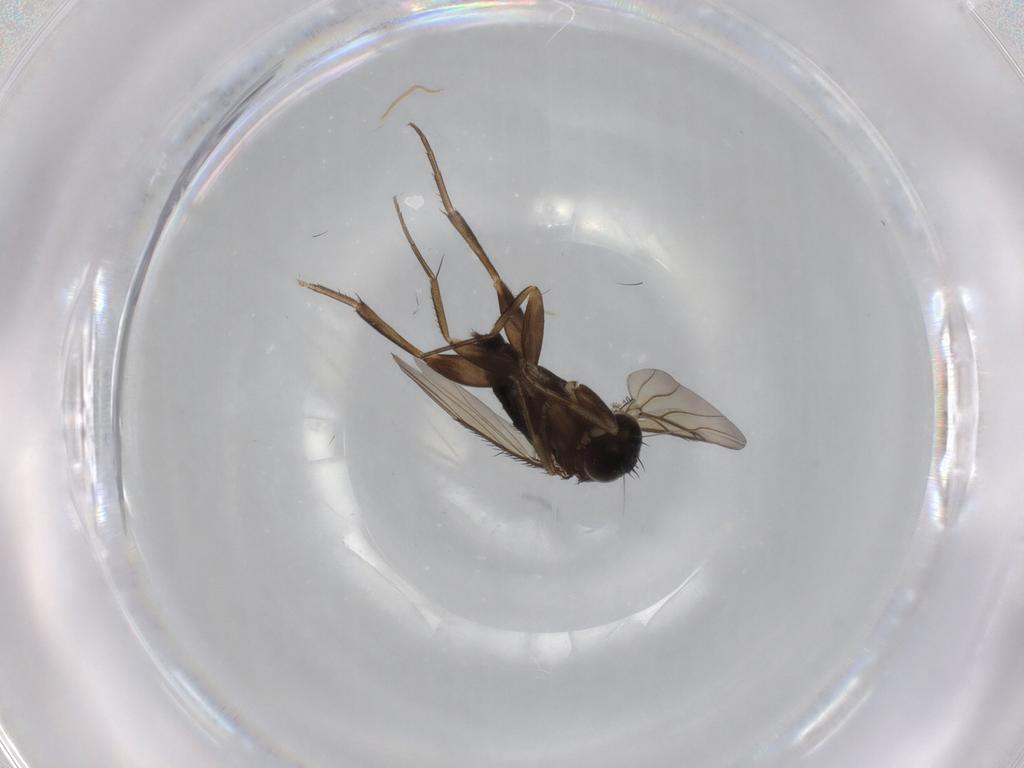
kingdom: Animalia
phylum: Arthropoda
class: Insecta
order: Diptera
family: Phoridae
